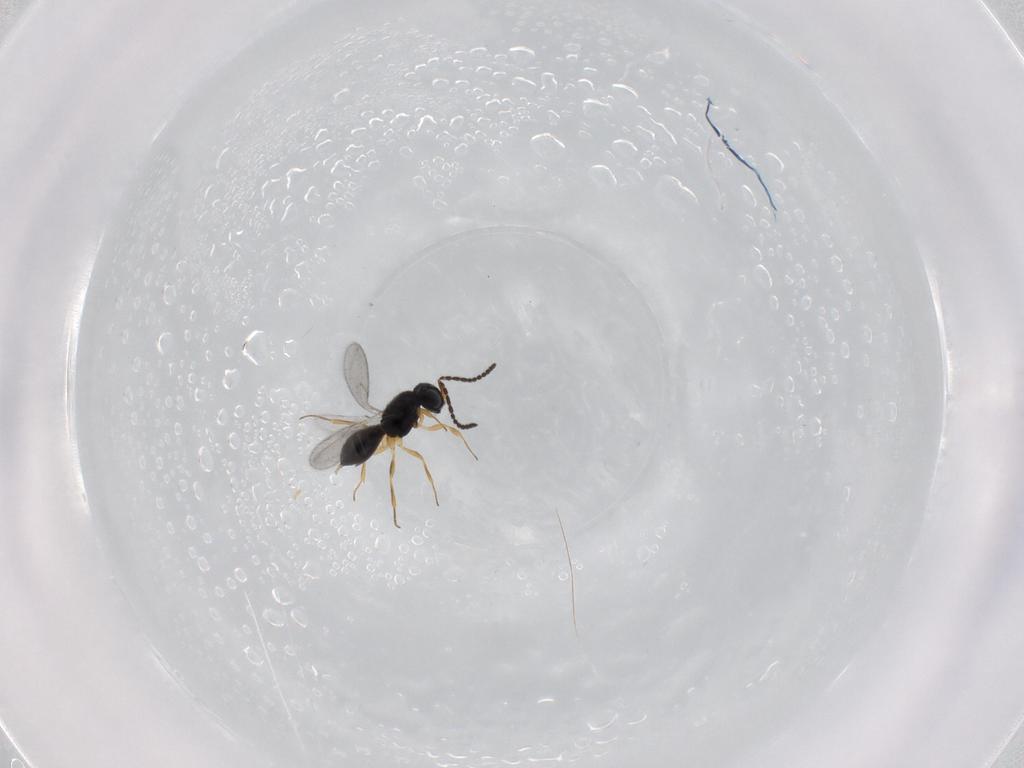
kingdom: Animalia
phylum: Arthropoda
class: Insecta
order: Hymenoptera
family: Scelionidae
